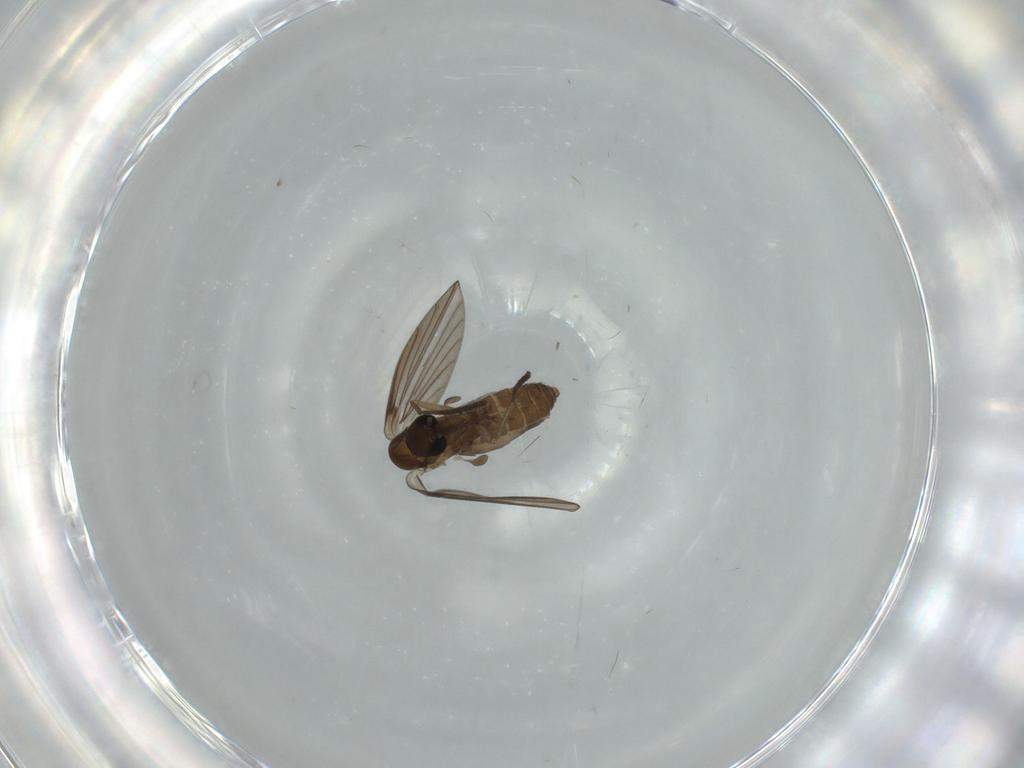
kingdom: Animalia
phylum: Arthropoda
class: Insecta
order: Diptera
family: Psychodidae
